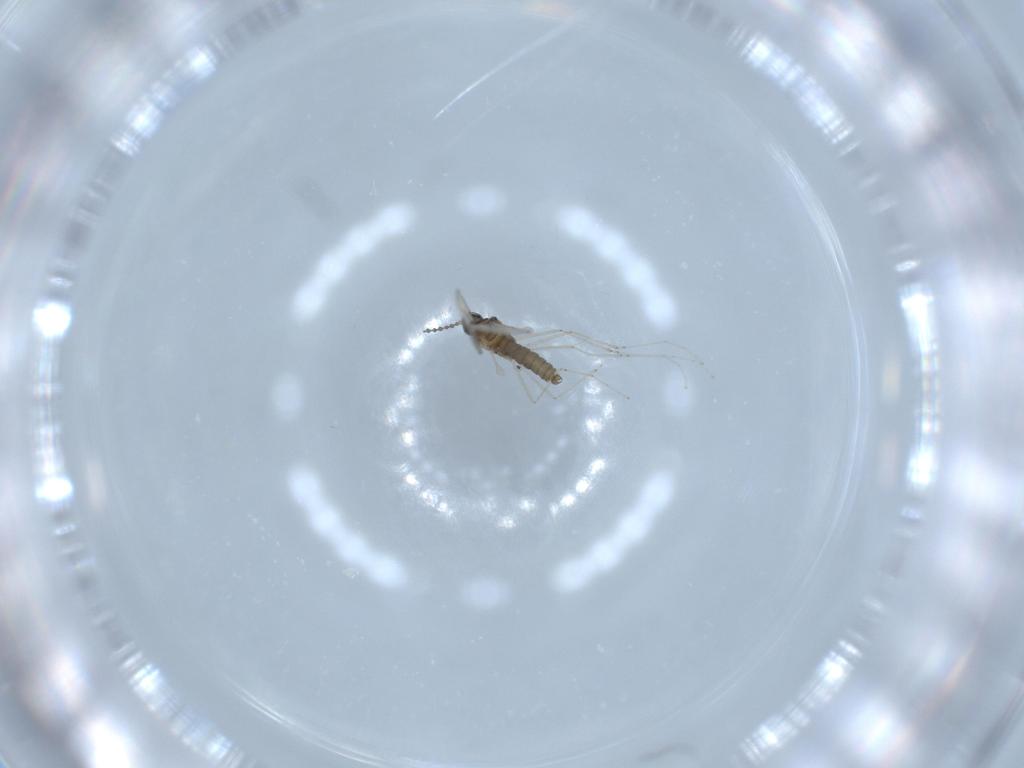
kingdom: Animalia
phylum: Arthropoda
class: Insecta
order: Diptera
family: Cecidomyiidae
